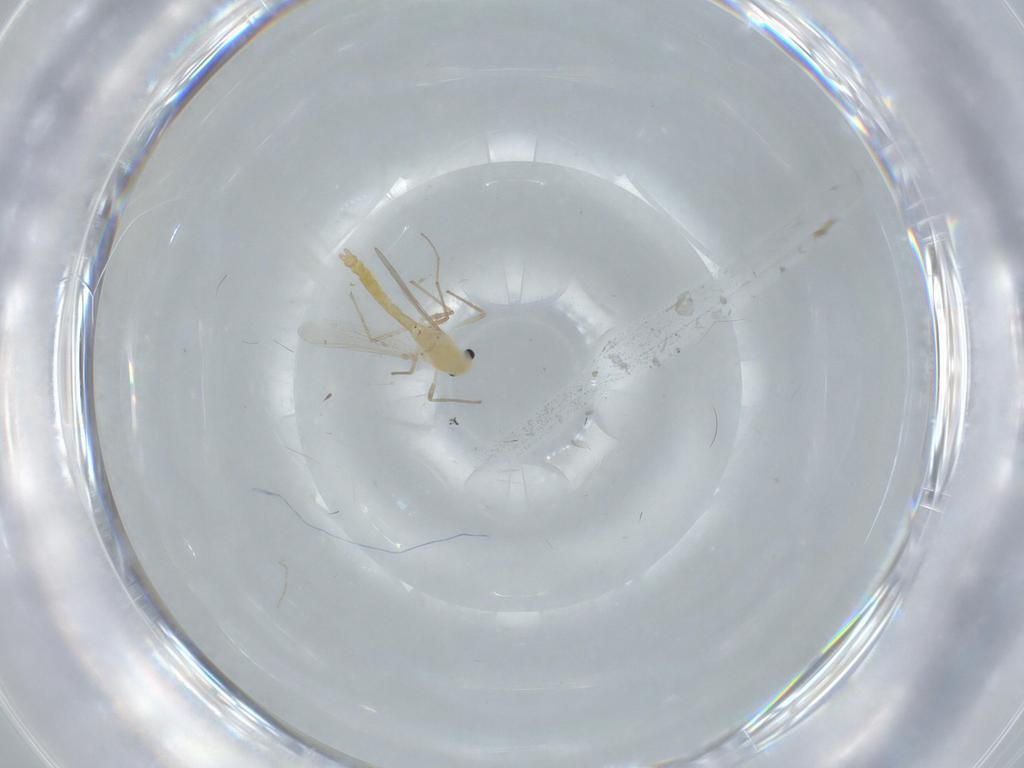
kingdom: Animalia
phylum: Arthropoda
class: Insecta
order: Diptera
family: Chironomidae
